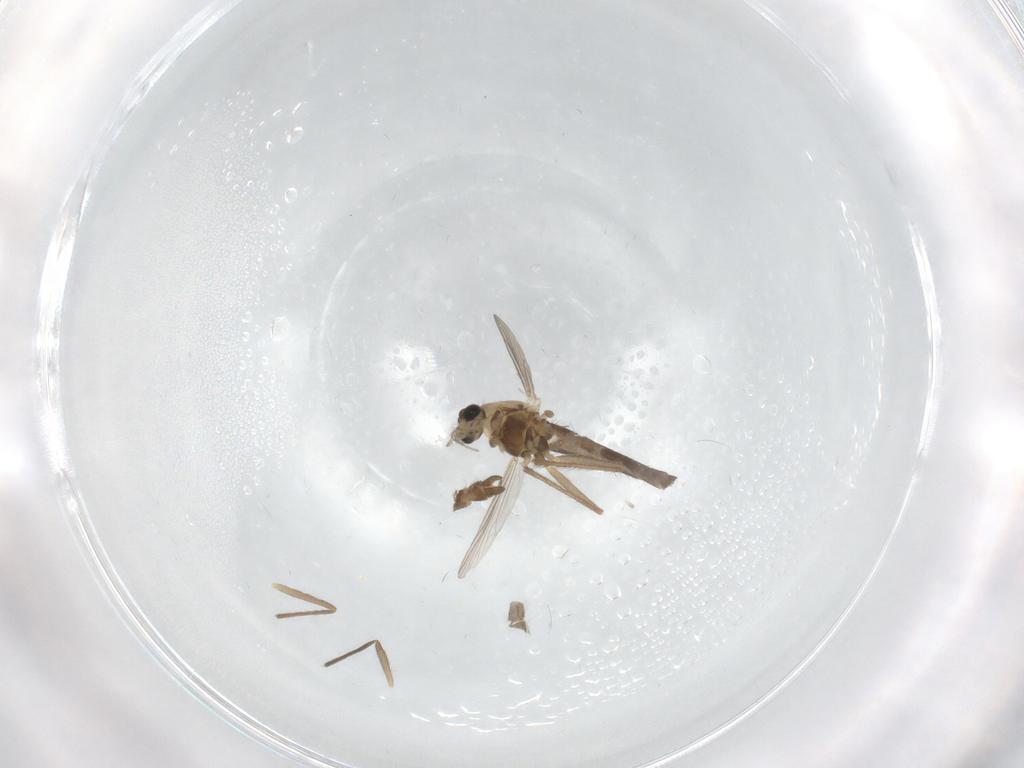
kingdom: Animalia
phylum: Arthropoda
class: Insecta
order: Diptera
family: Chironomidae
